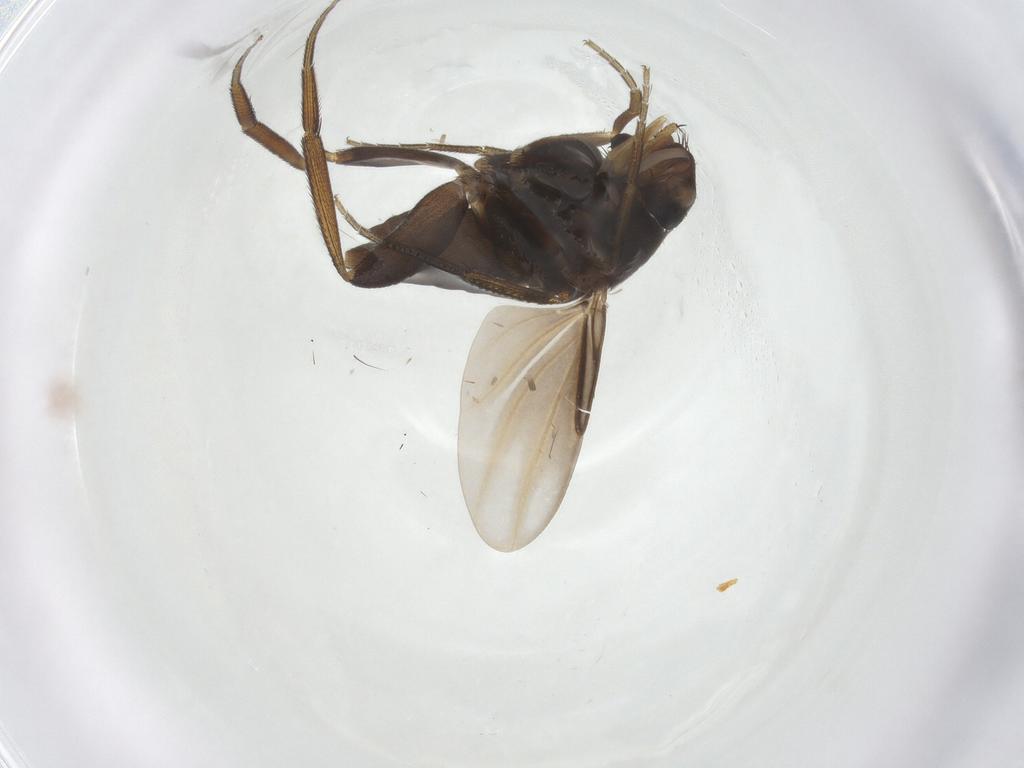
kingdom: Animalia
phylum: Arthropoda
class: Insecta
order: Diptera
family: Phoridae
